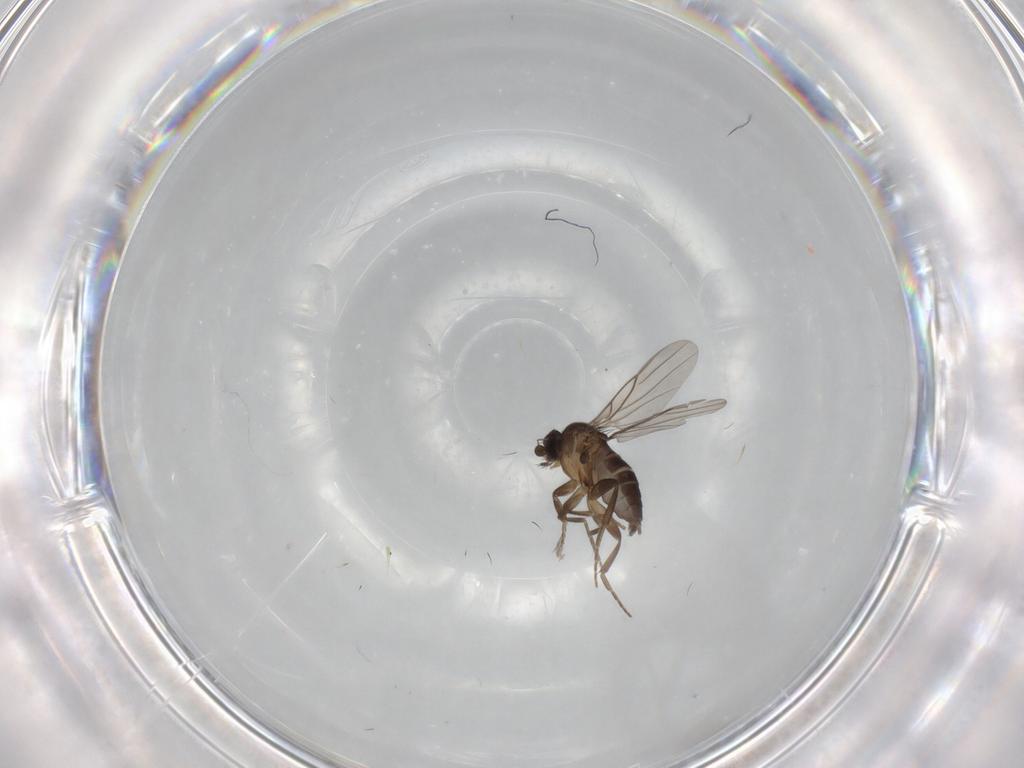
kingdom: Animalia
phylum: Arthropoda
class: Insecta
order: Diptera
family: Phoridae
